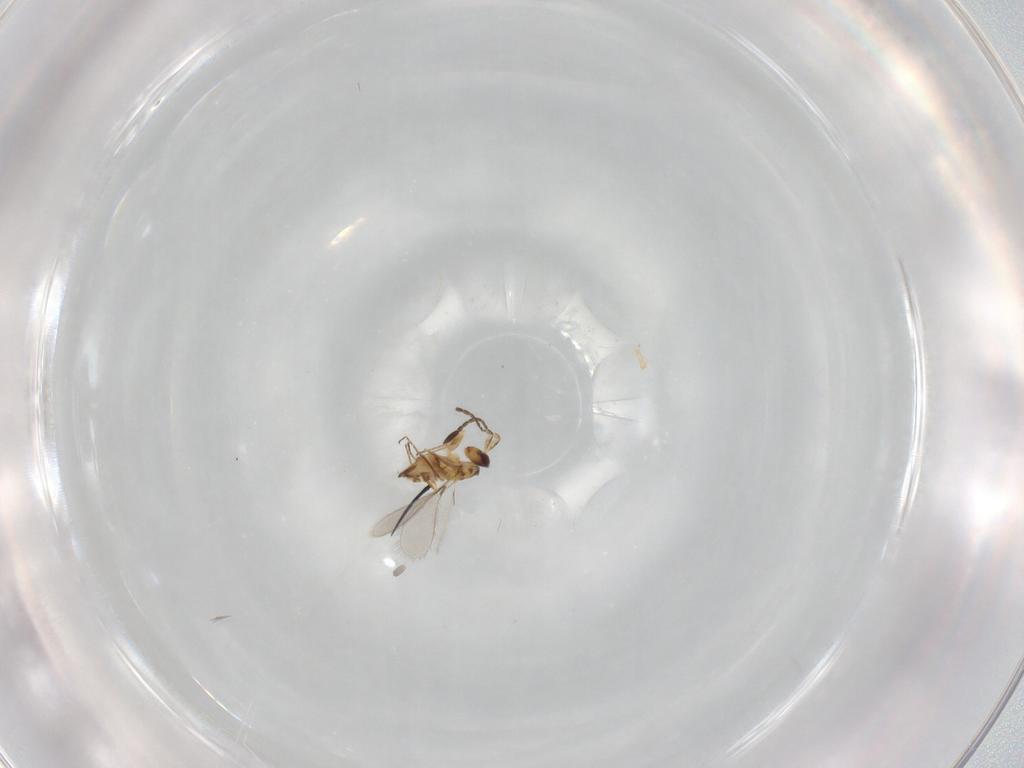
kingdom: Animalia
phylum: Arthropoda
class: Insecta
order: Hymenoptera
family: Mymaridae
